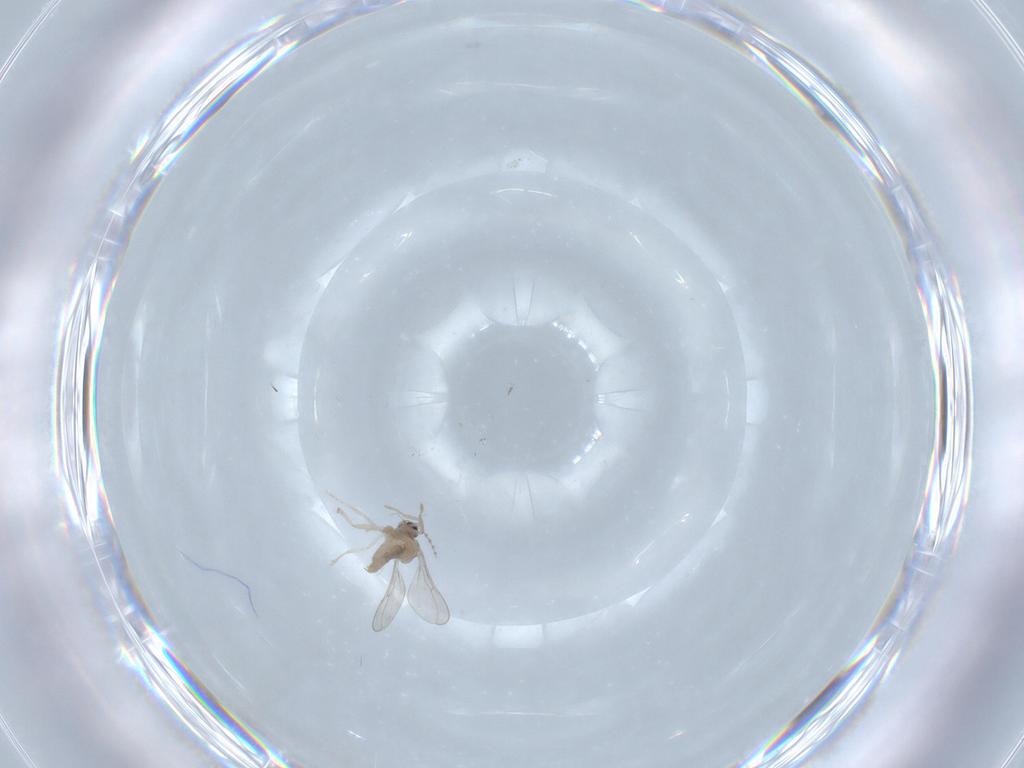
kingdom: Animalia
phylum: Arthropoda
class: Insecta
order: Diptera
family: Cecidomyiidae
